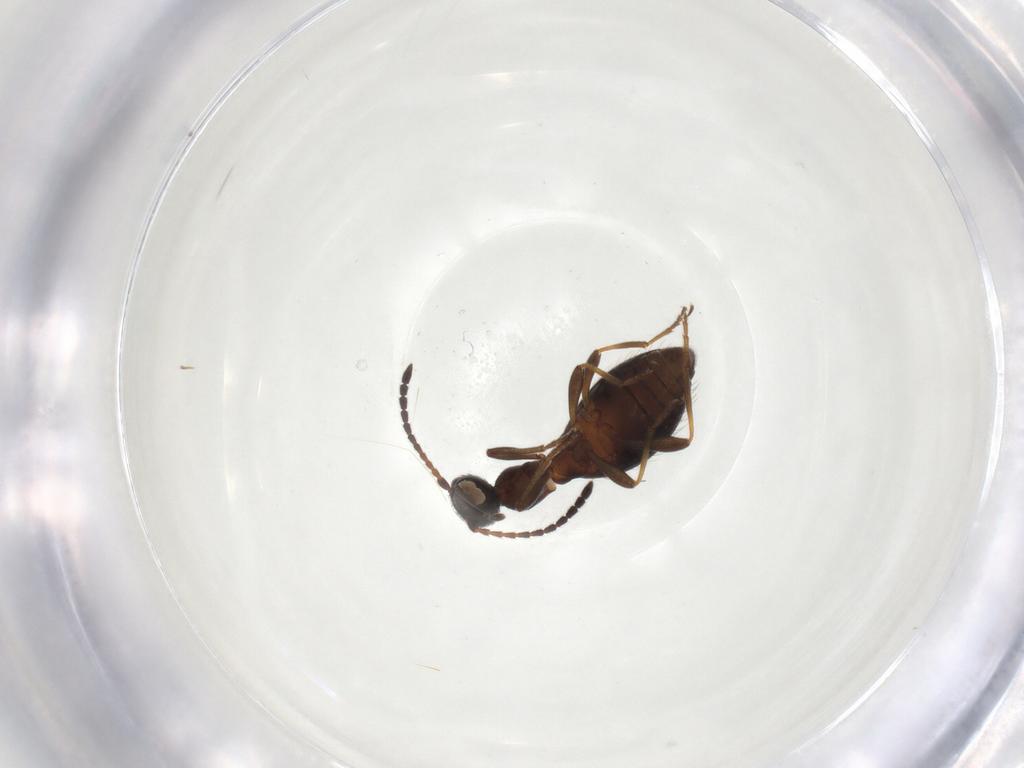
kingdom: Animalia
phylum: Arthropoda
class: Insecta
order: Coleoptera
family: Anthicidae
